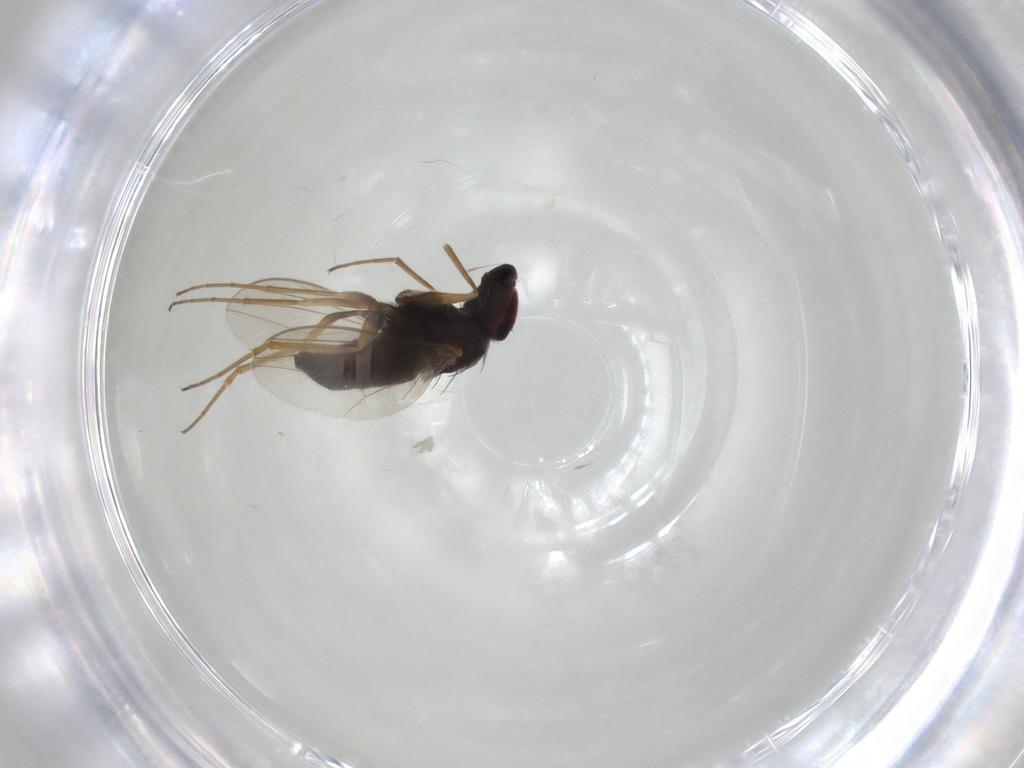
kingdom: Animalia
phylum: Arthropoda
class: Insecta
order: Diptera
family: Dolichopodidae
